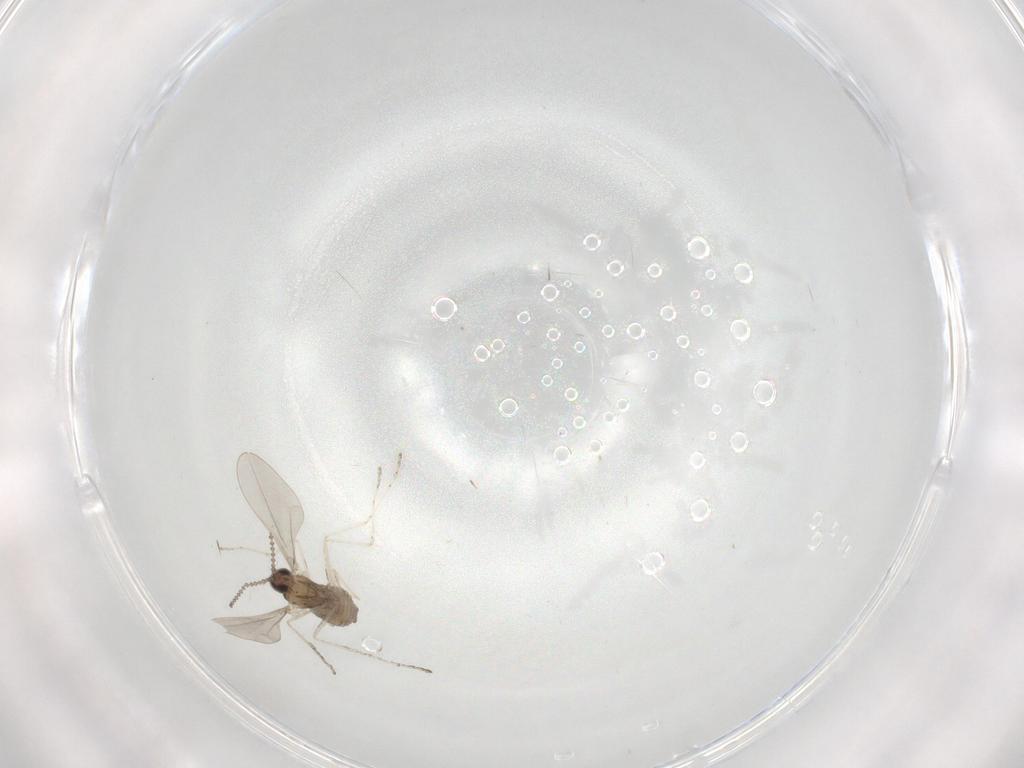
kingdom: Animalia
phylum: Arthropoda
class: Insecta
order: Diptera
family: Cecidomyiidae
